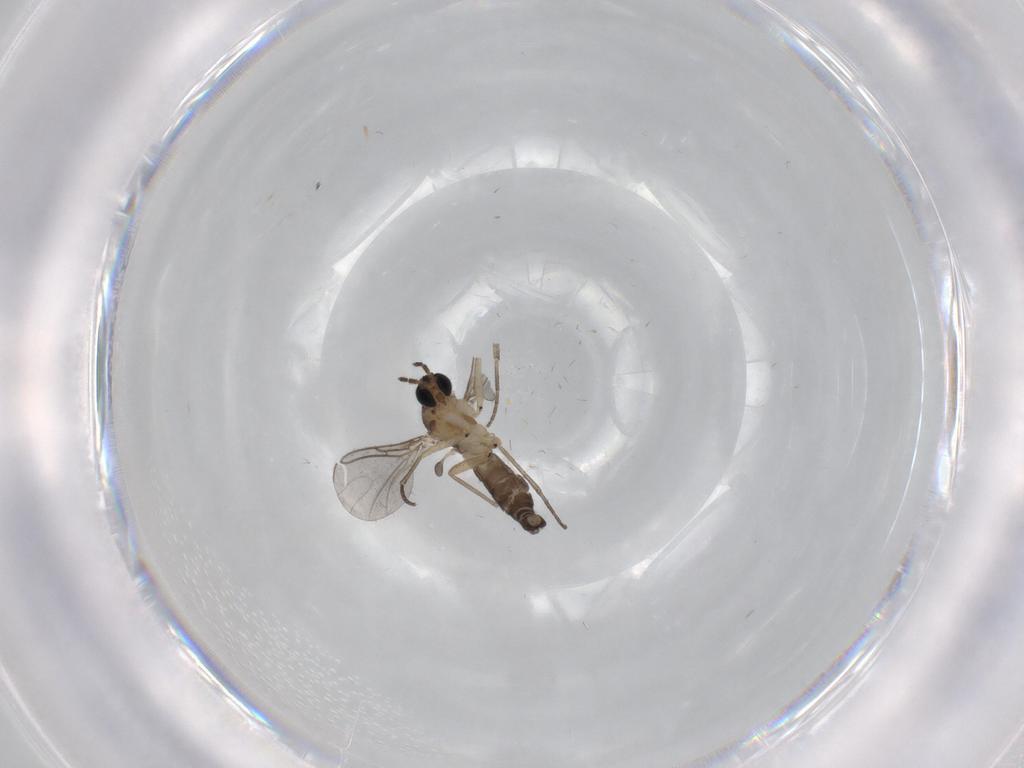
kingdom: Animalia
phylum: Arthropoda
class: Insecta
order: Diptera
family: Sciaridae
